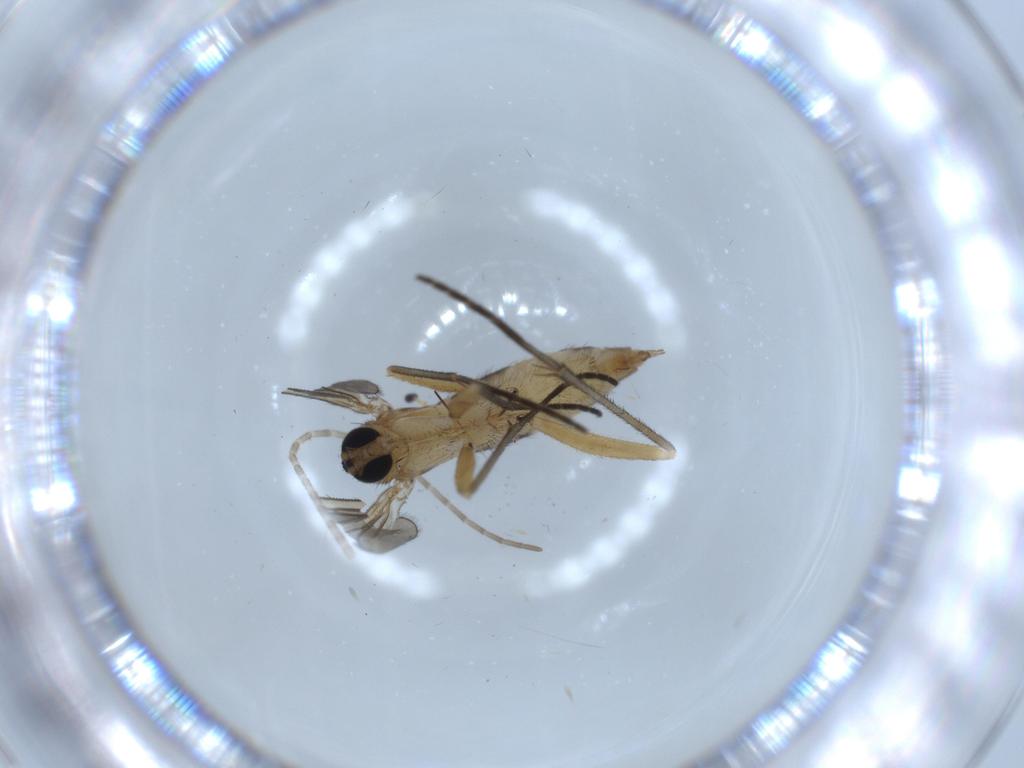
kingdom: Animalia
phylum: Arthropoda
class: Insecta
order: Diptera
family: Sciaridae
